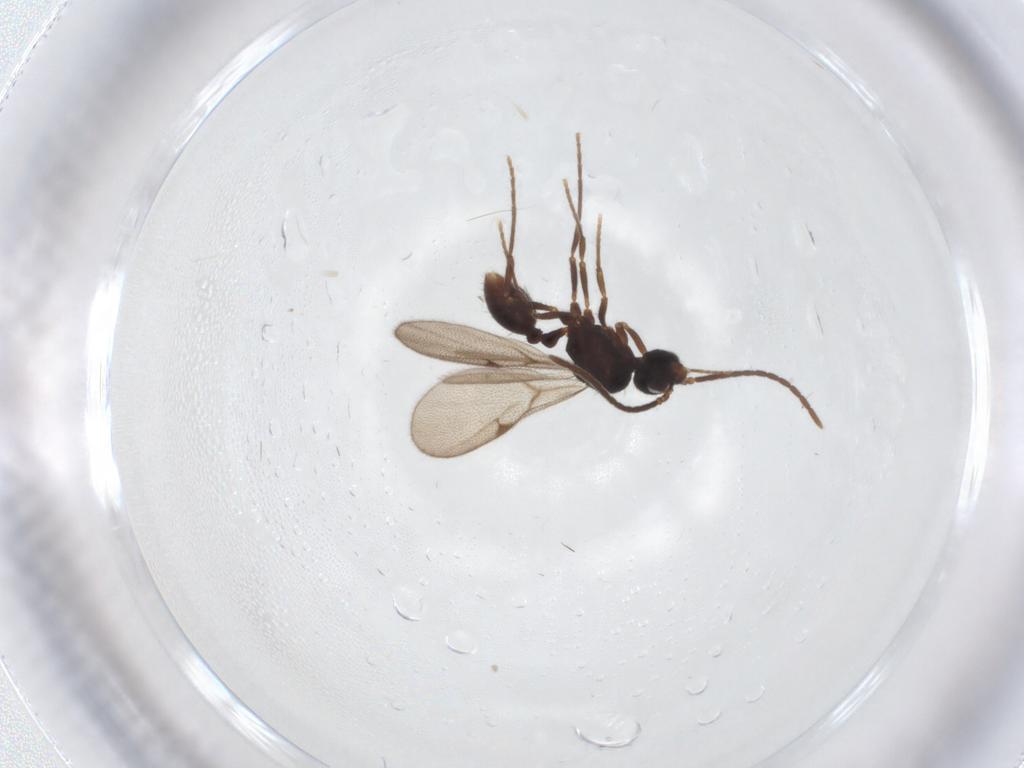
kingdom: Animalia
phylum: Arthropoda
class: Insecta
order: Hymenoptera
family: Formicidae
